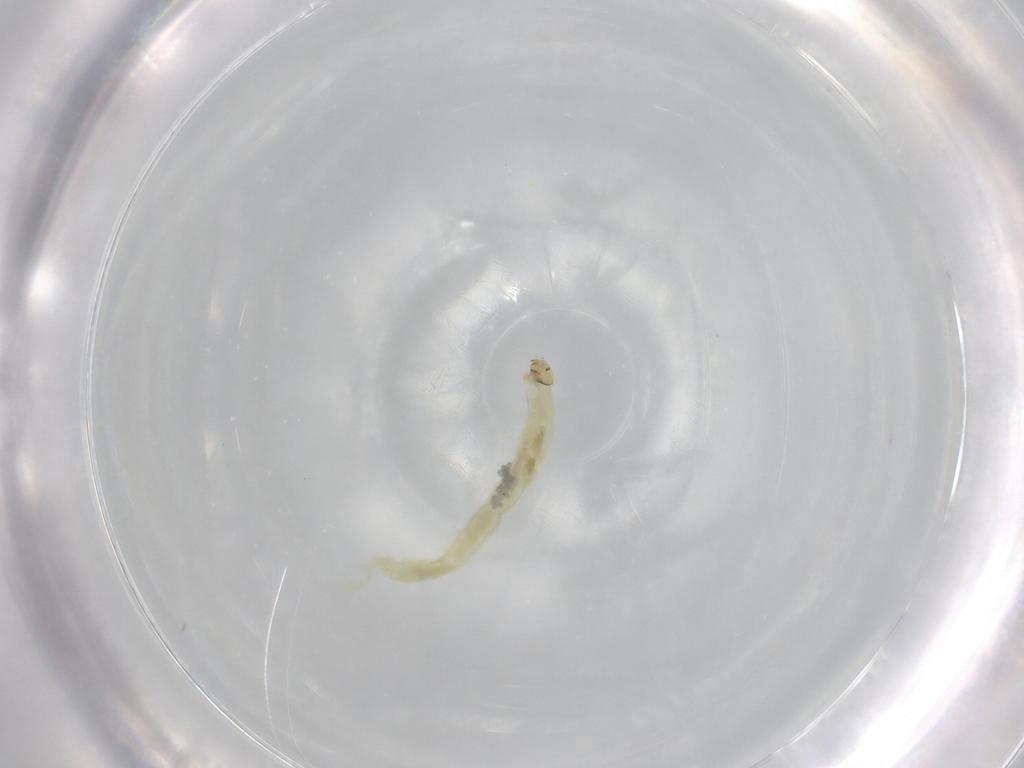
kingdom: Animalia
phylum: Arthropoda
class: Insecta
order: Diptera
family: Chironomidae
